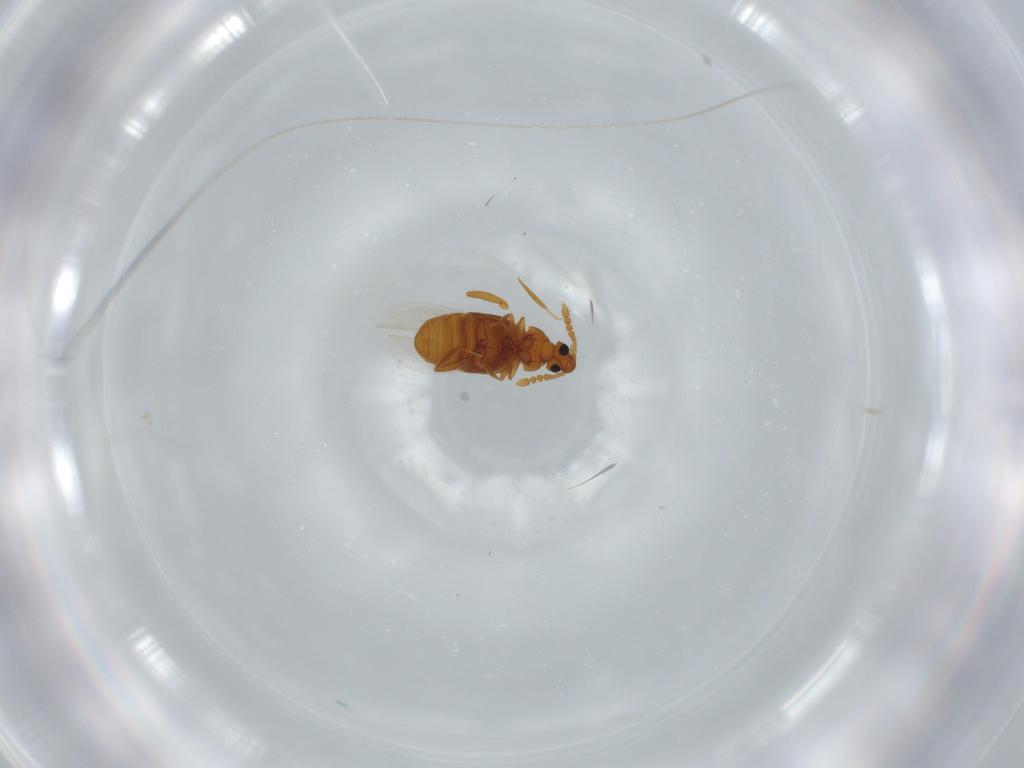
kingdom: Animalia
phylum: Arthropoda
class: Insecta
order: Coleoptera
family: Staphylinidae
